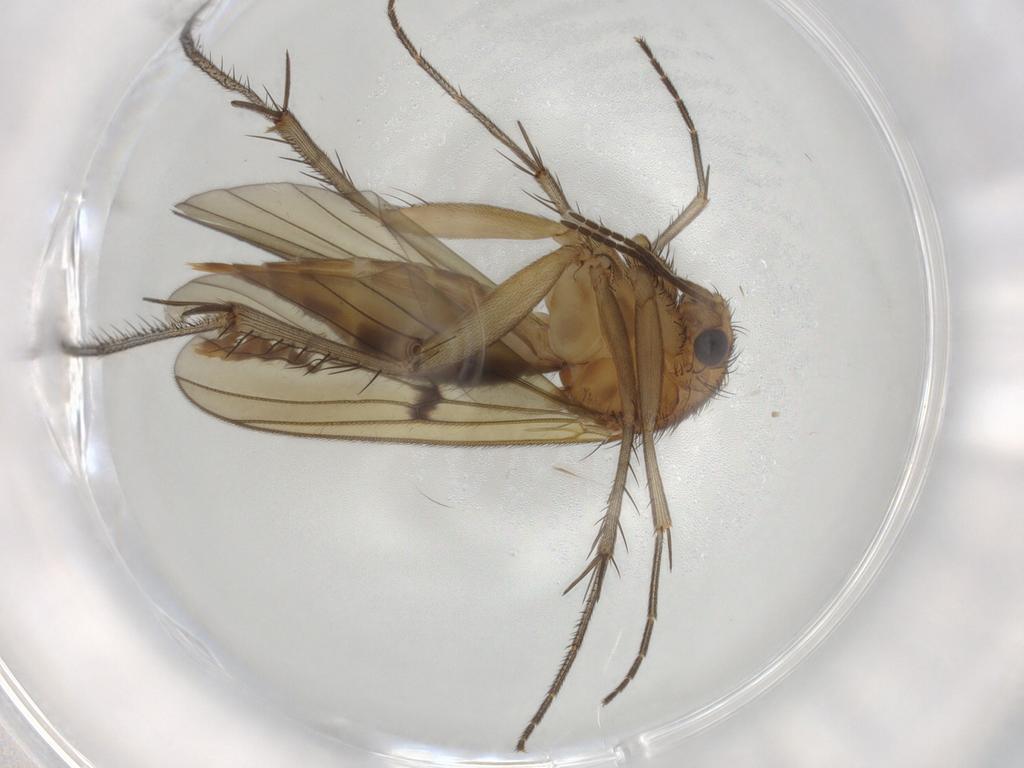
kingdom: Animalia
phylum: Arthropoda
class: Insecta
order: Diptera
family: Mycetophilidae
